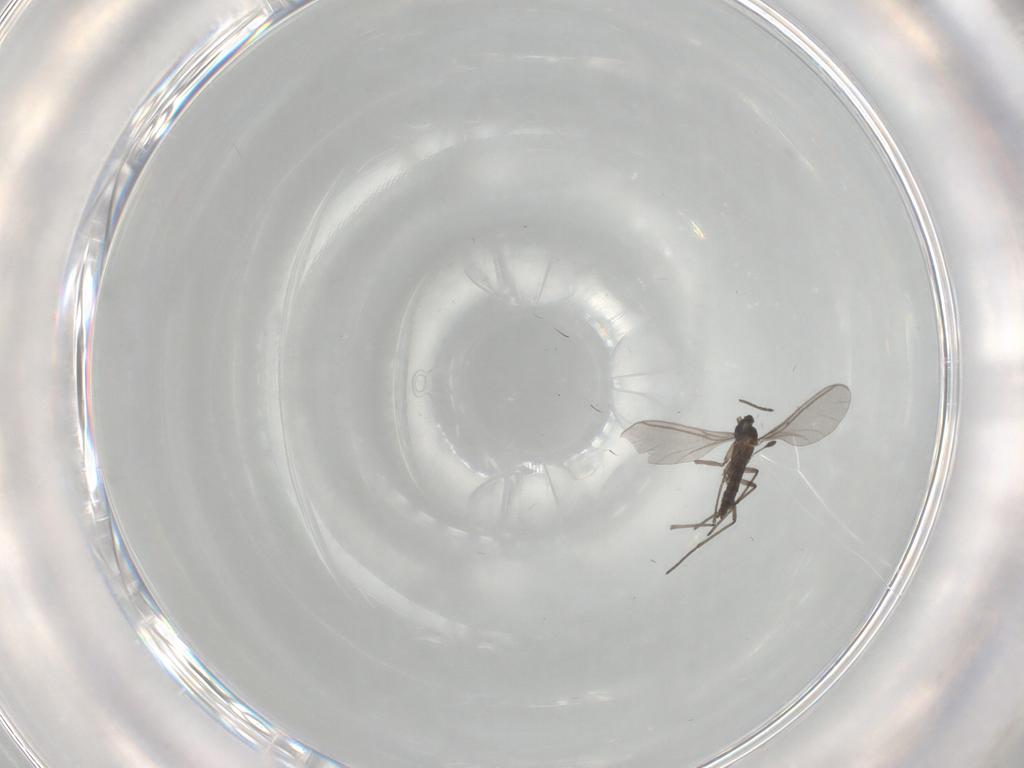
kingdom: Animalia
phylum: Arthropoda
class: Insecta
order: Diptera
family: Sciaridae
